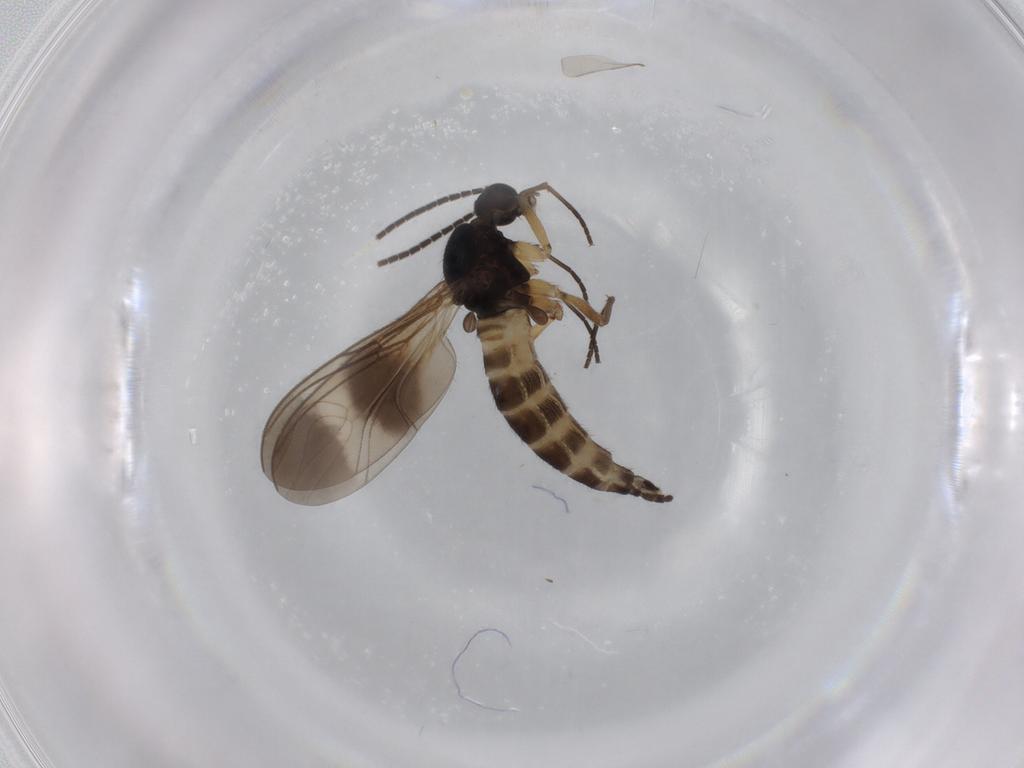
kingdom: Animalia
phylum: Arthropoda
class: Insecta
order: Diptera
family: Sciaridae
